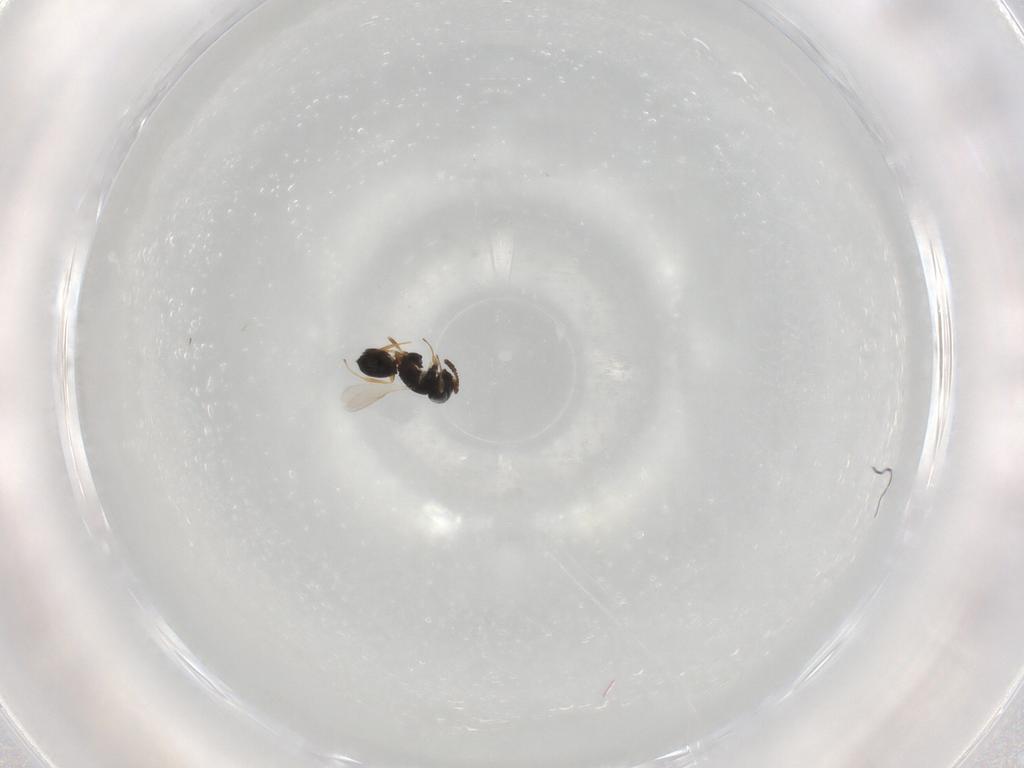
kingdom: Animalia
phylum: Arthropoda
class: Insecta
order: Hymenoptera
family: Scelionidae
